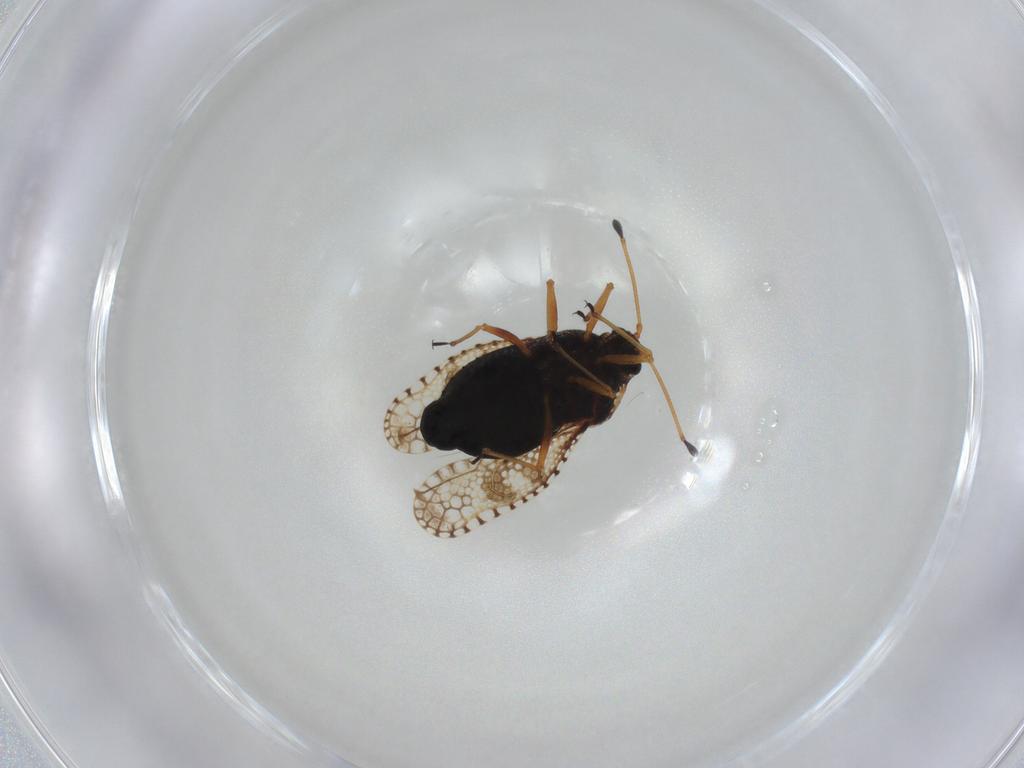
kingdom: Animalia
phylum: Arthropoda
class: Insecta
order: Hemiptera
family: Tingidae
